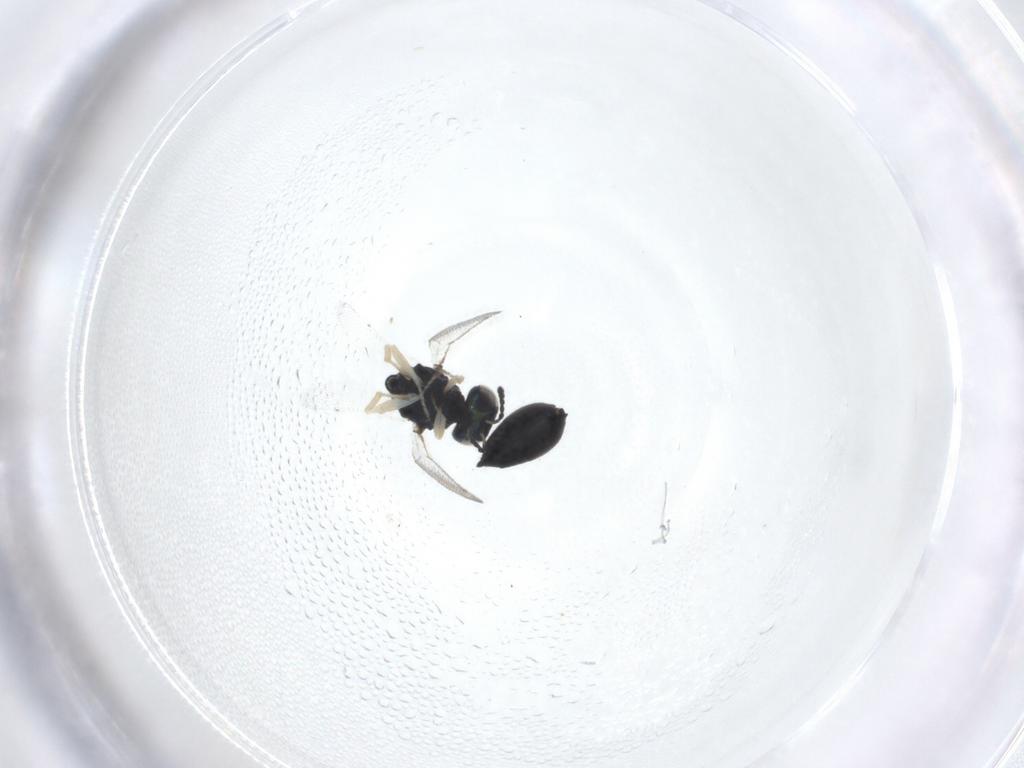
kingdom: Animalia
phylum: Arthropoda
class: Insecta
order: Hymenoptera
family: Eulophidae
